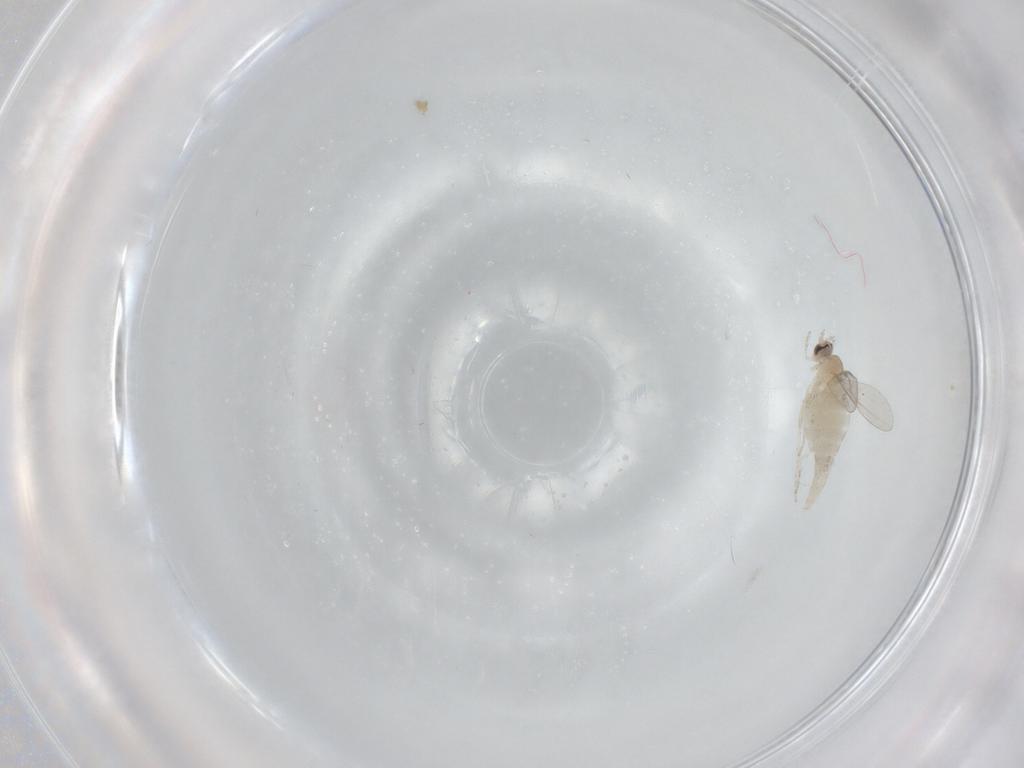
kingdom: Animalia
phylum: Arthropoda
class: Insecta
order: Diptera
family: Cecidomyiidae
